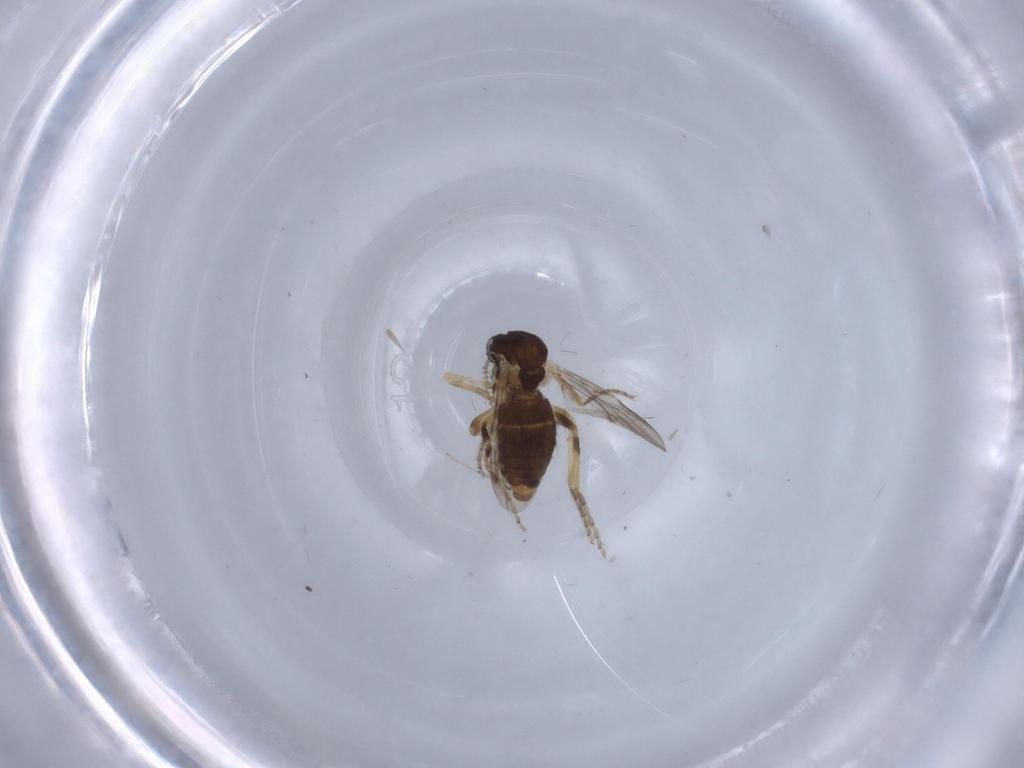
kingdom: Animalia
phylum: Arthropoda
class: Insecta
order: Diptera
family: Ceratopogonidae
